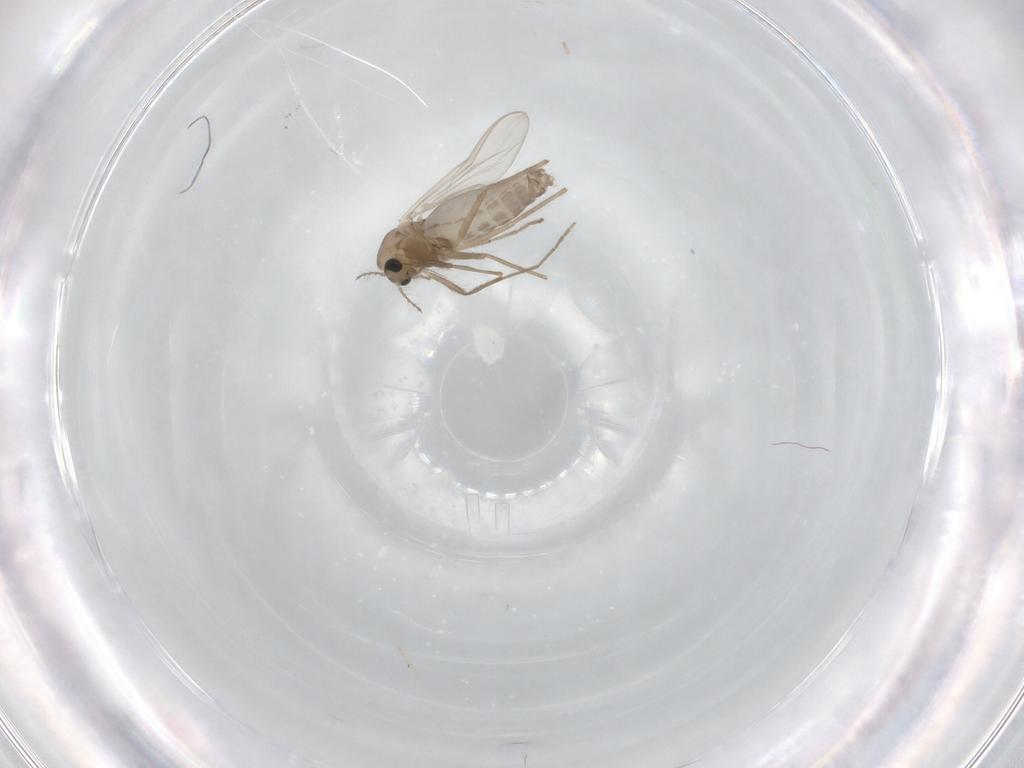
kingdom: Animalia
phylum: Arthropoda
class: Insecta
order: Diptera
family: Chironomidae
